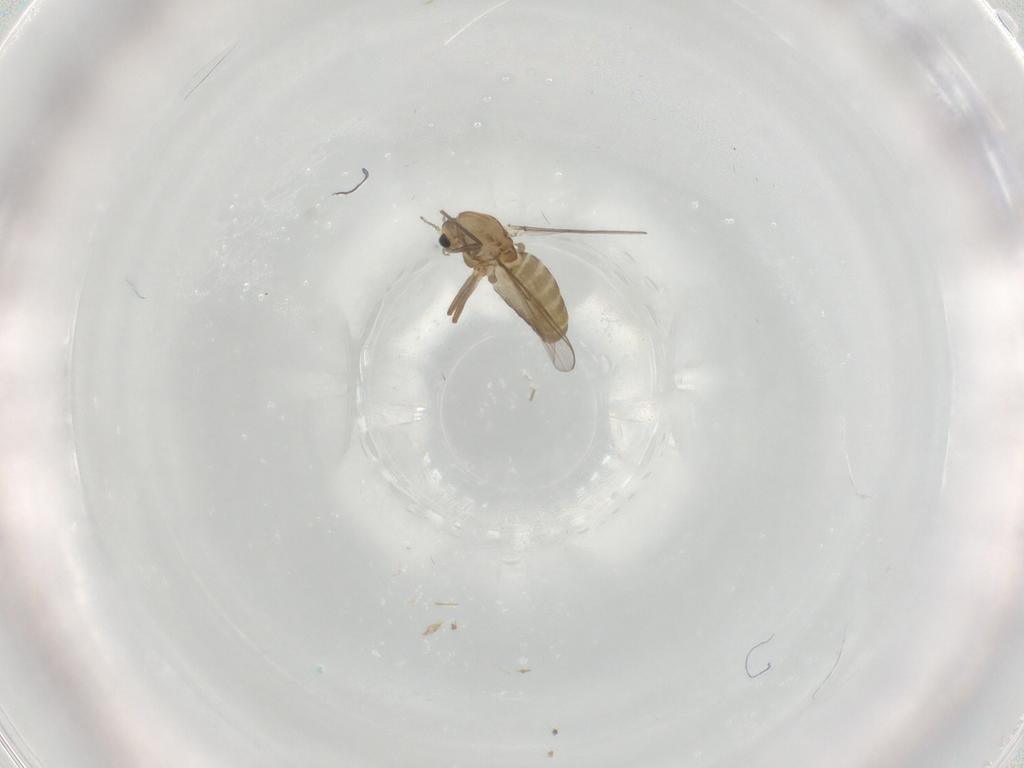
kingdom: Animalia
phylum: Arthropoda
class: Insecta
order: Diptera
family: Chironomidae
